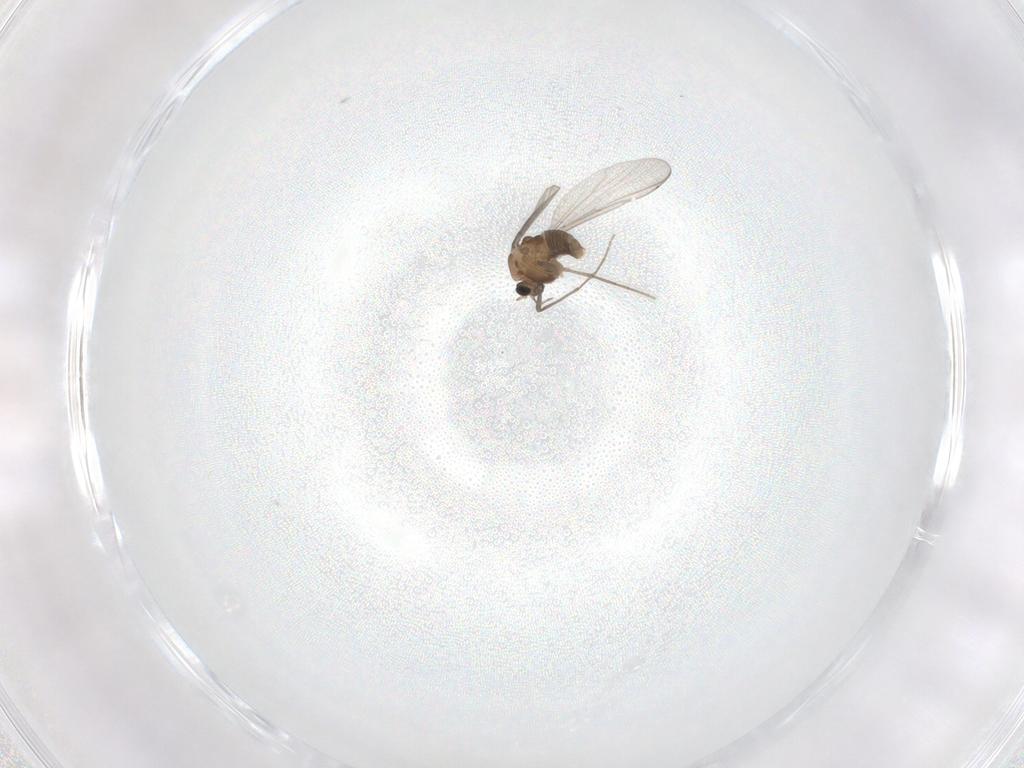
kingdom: Animalia
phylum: Arthropoda
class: Insecta
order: Diptera
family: Chironomidae
